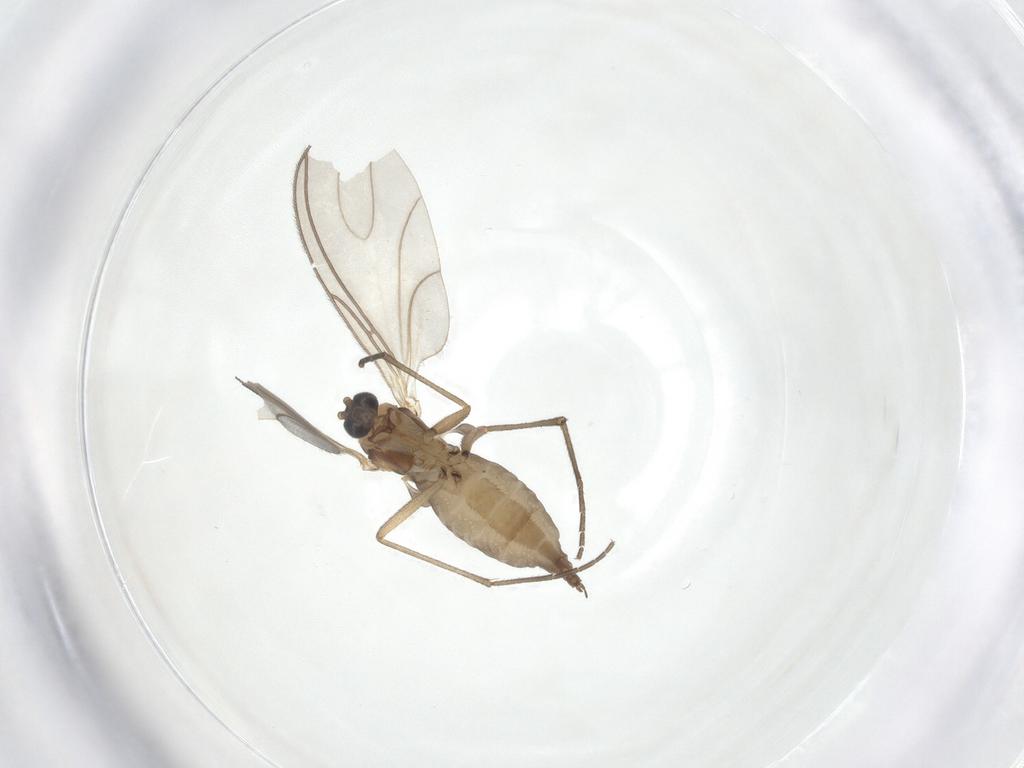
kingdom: Animalia
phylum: Arthropoda
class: Insecta
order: Diptera
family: Sciaridae
